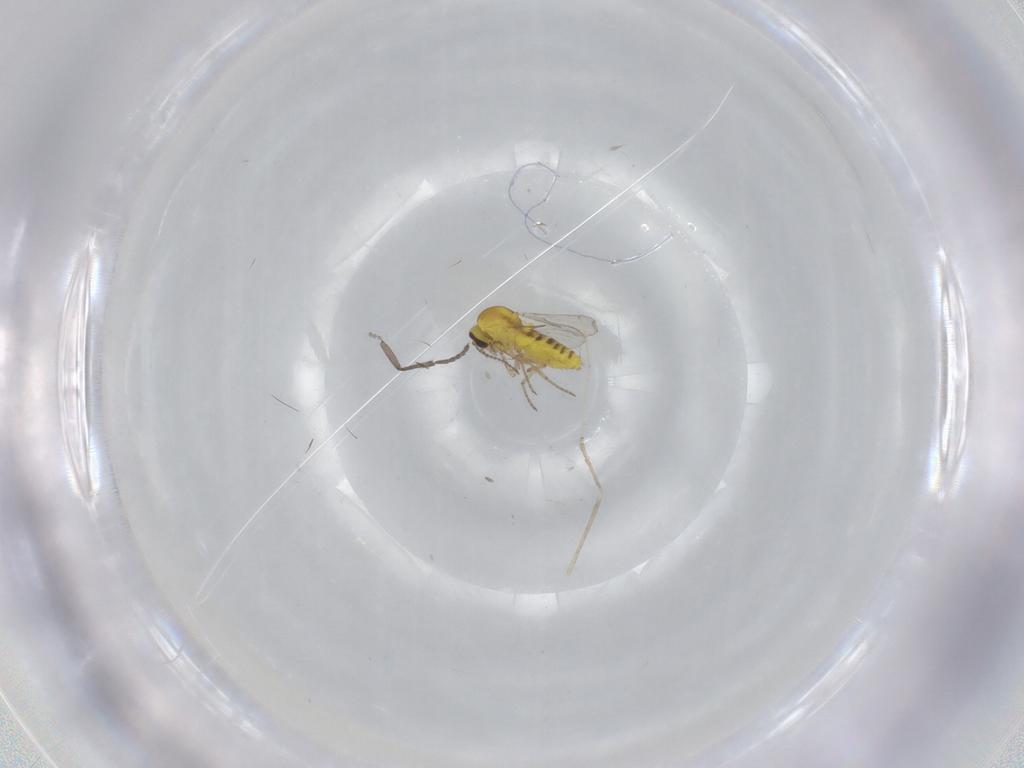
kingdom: Animalia
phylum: Arthropoda
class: Insecta
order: Diptera
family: Ceratopogonidae
